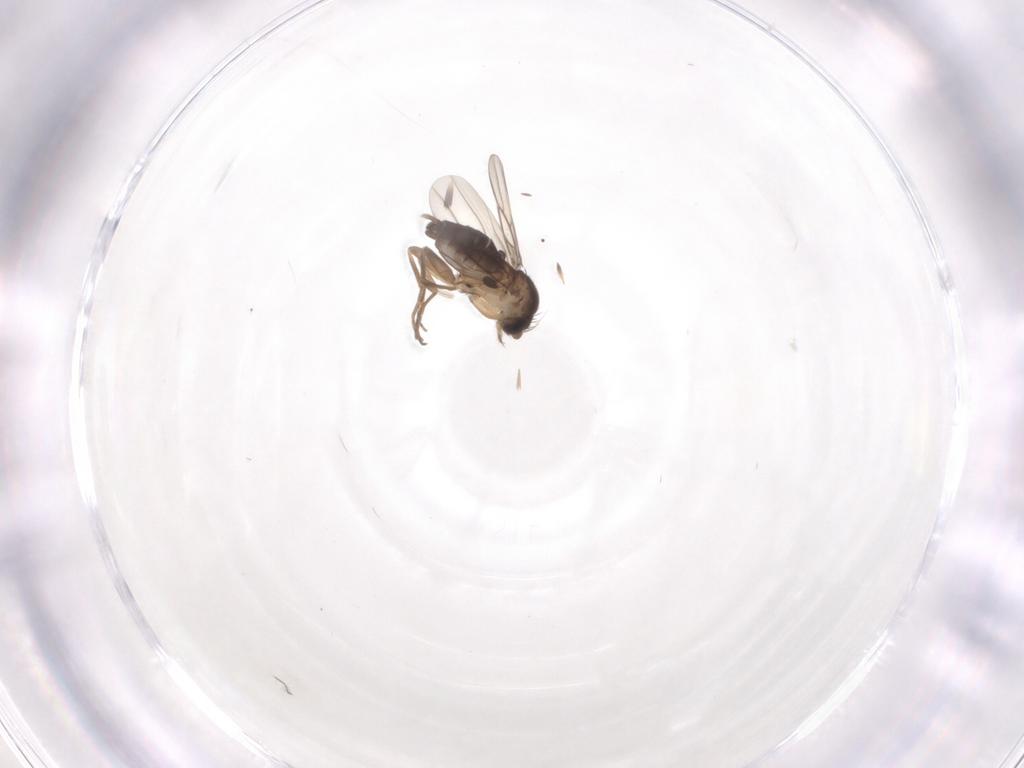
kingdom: Animalia
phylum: Arthropoda
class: Insecta
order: Diptera
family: Phoridae
